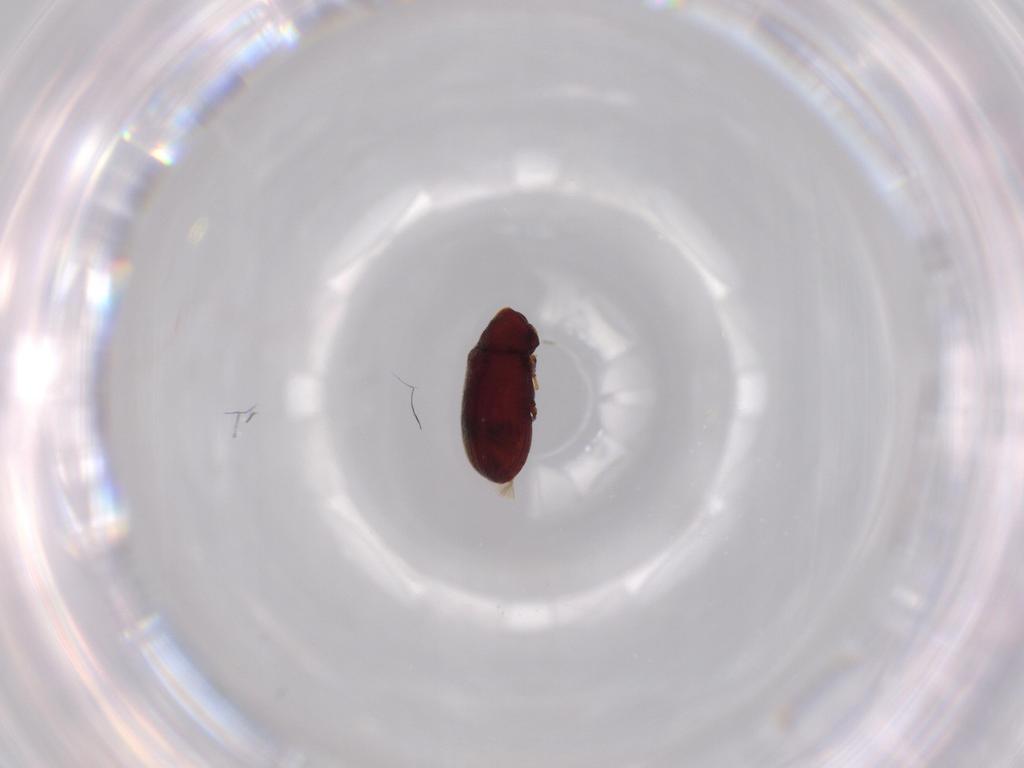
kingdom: Animalia
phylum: Arthropoda
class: Insecta
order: Coleoptera
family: Anobiidae
